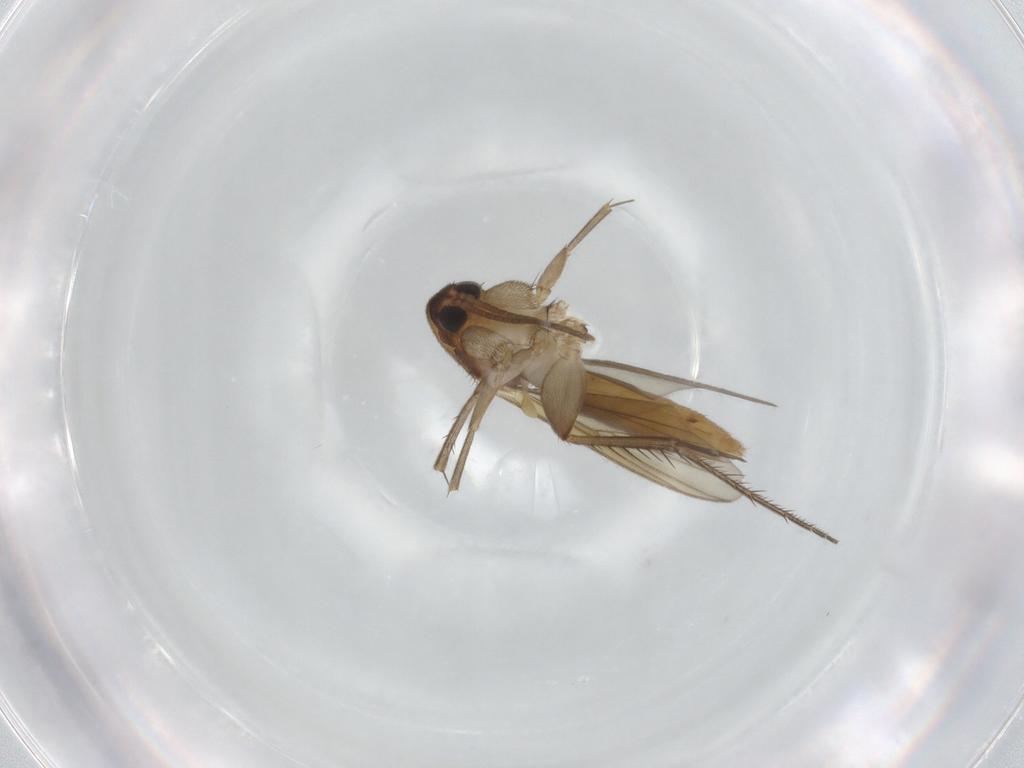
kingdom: Animalia
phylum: Arthropoda
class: Insecta
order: Diptera
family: Mycetophilidae
